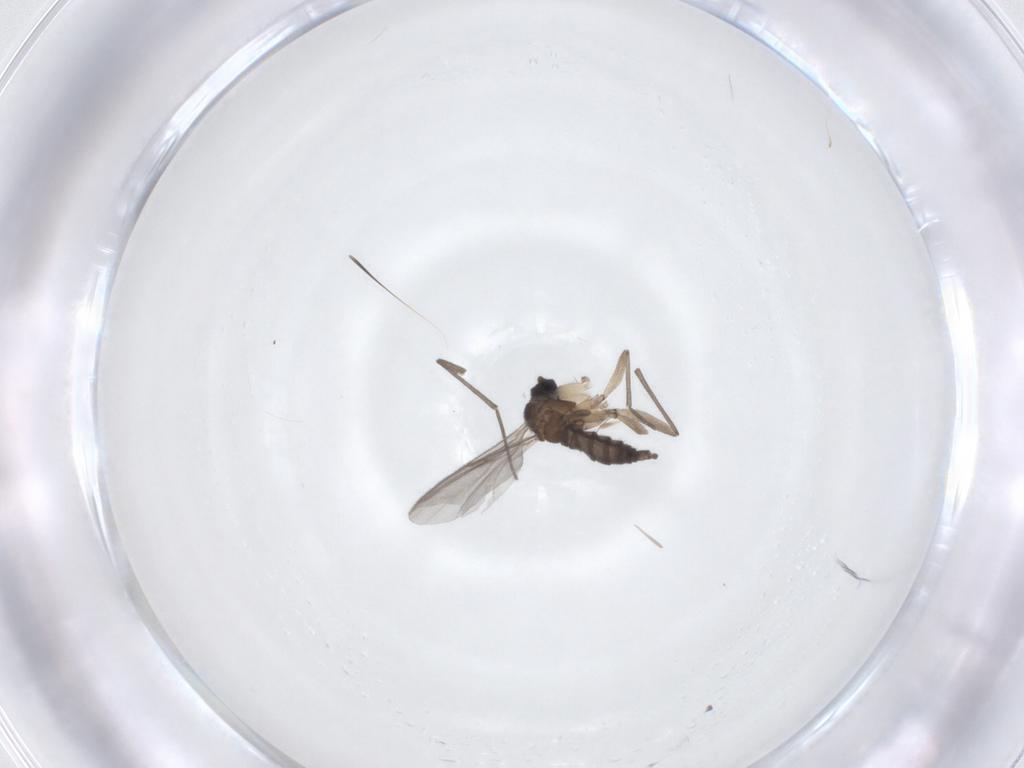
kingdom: Animalia
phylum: Arthropoda
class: Insecta
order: Diptera
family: Sciaridae
